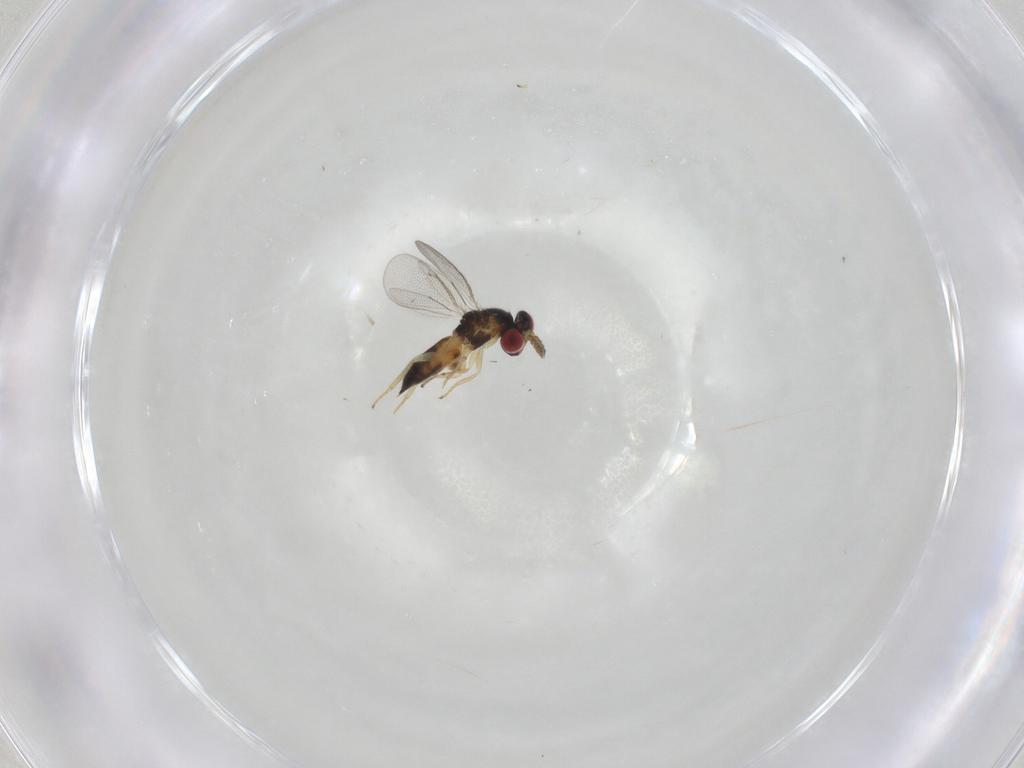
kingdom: Animalia
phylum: Arthropoda
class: Insecta
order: Hymenoptera
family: Eulophidae
